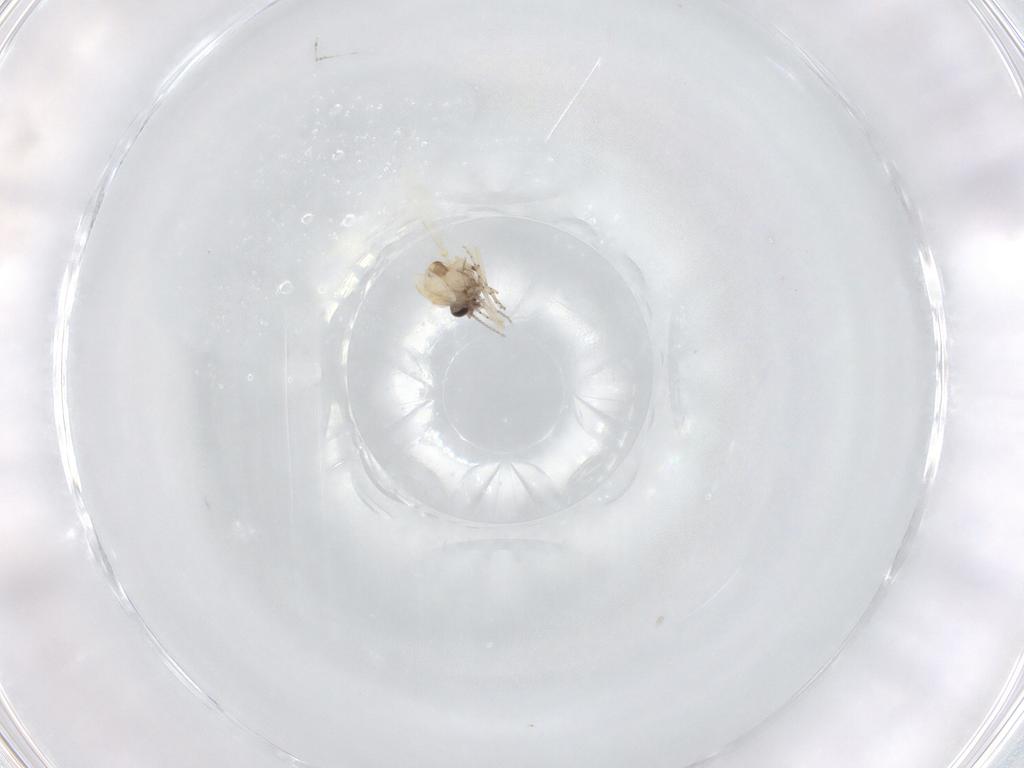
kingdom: Animalia
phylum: Arthropoda
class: Insecta
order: Diptera
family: Ceratopogonidae
